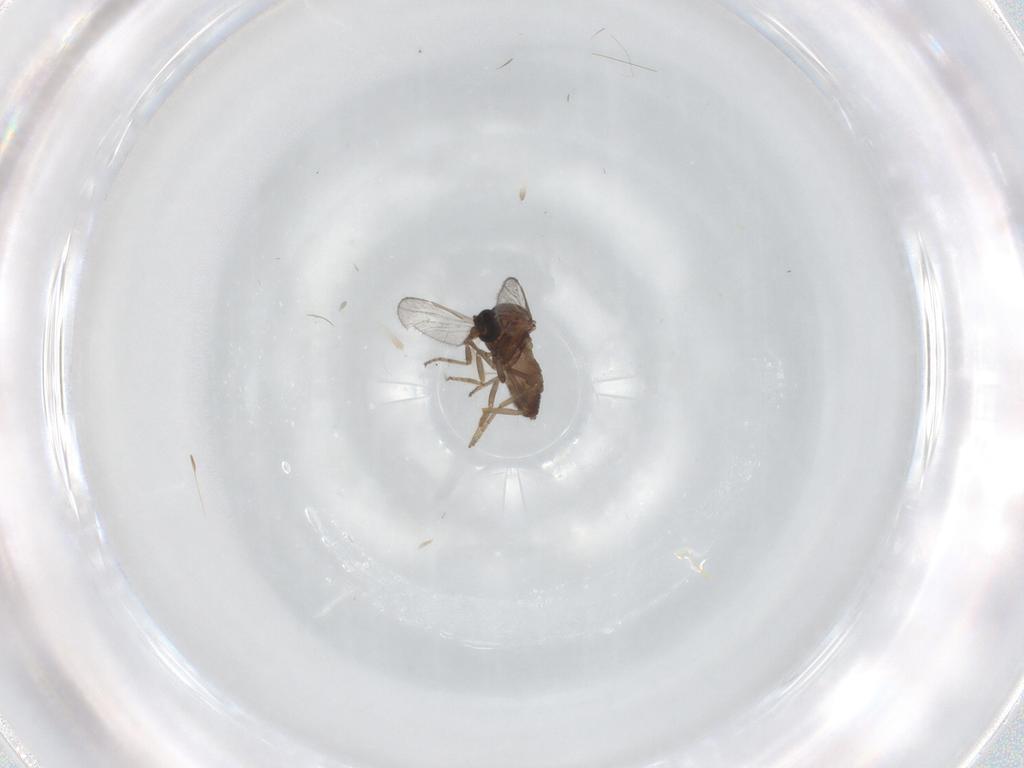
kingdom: Animalia
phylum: Arthropoda
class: Insecta
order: Diptera
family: Ceratopogonidae
